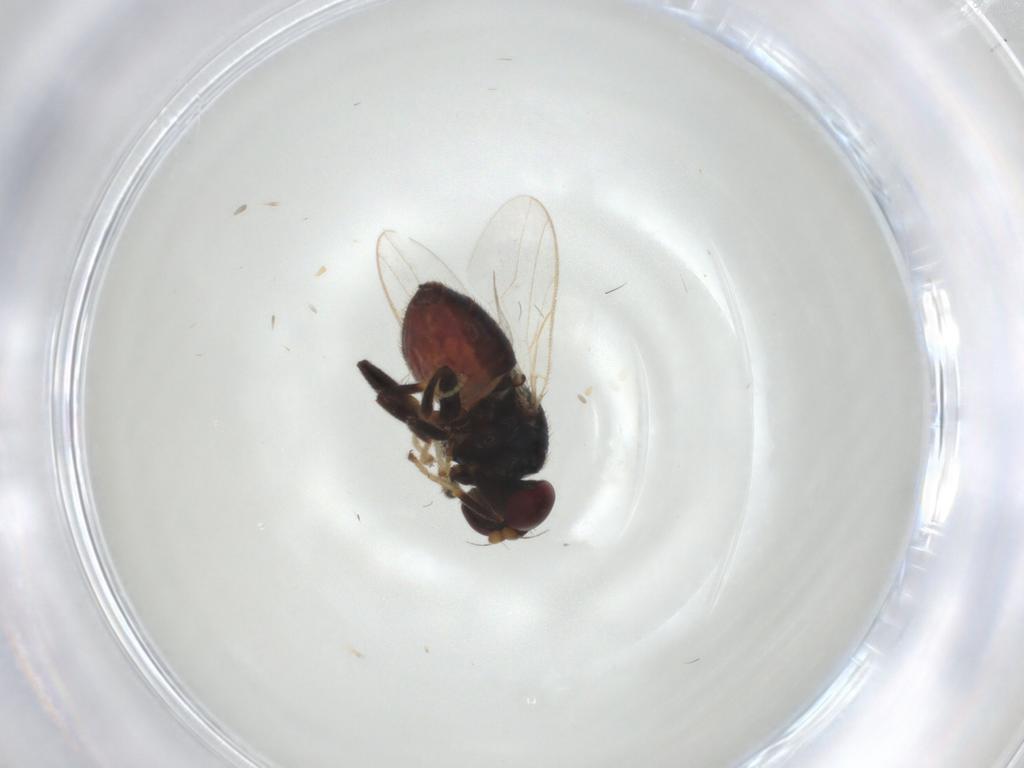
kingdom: Animalia
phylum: Arthropoda
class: Insecta
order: Diptera
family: Chloropidae
